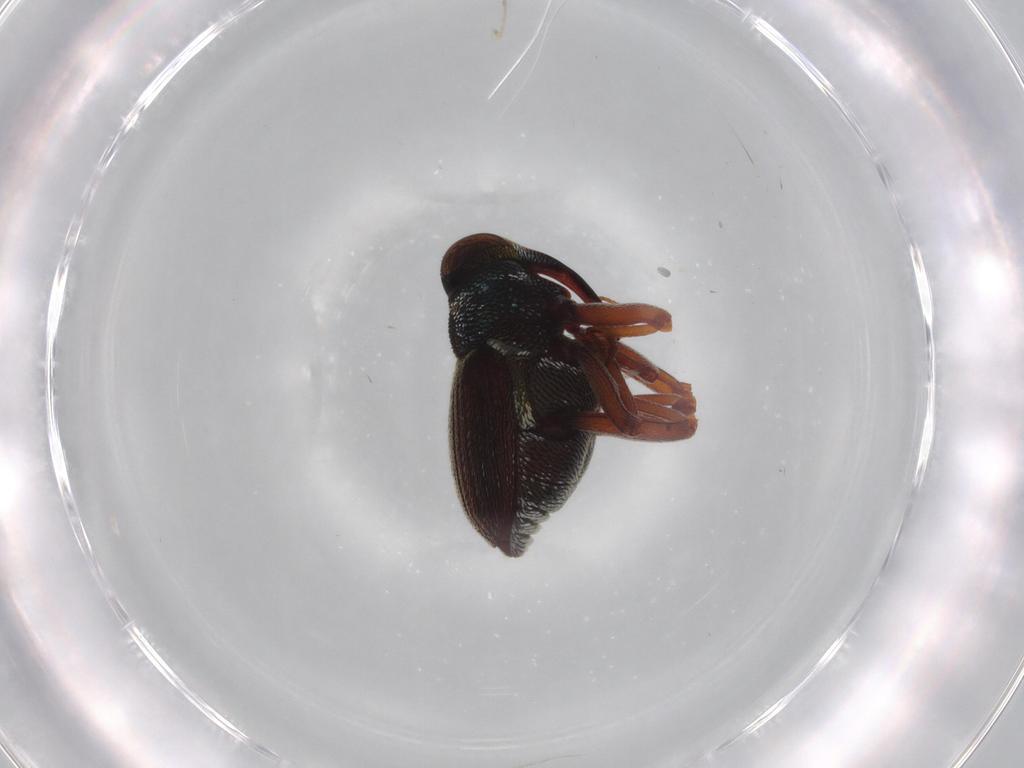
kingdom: Animalia
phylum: Arthropoda
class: Insecta
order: Coleoptera
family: Curculionidae
